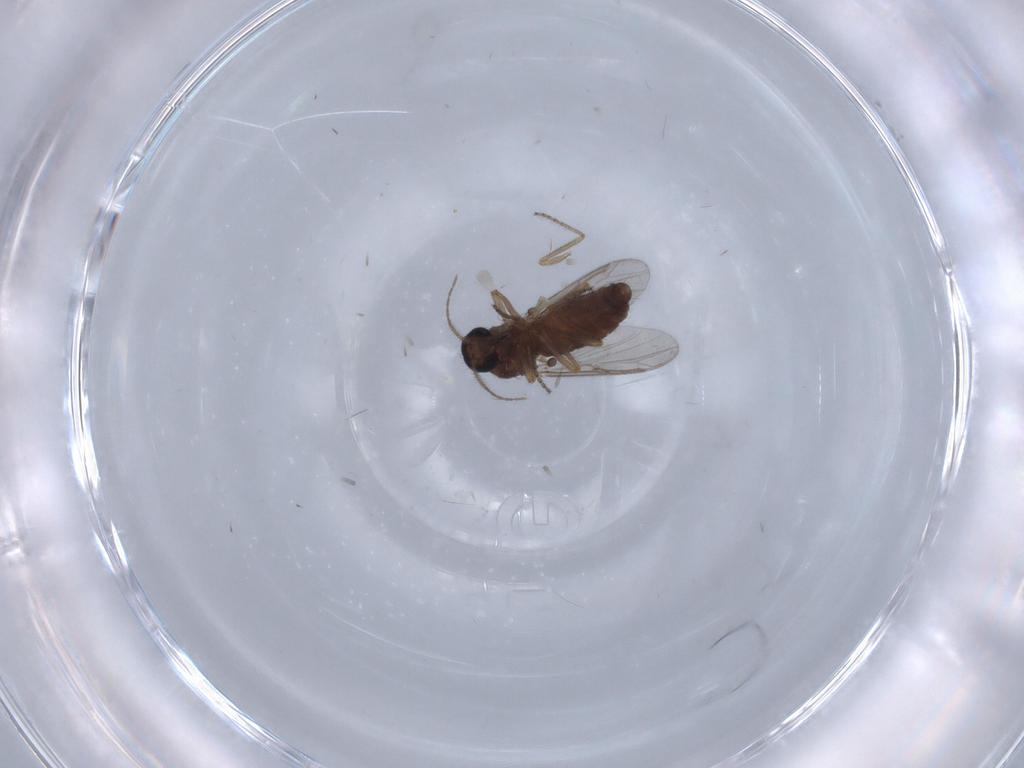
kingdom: Animalia
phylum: Arthropoda
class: Insecta
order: Diptera
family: Ceratopogonidae
